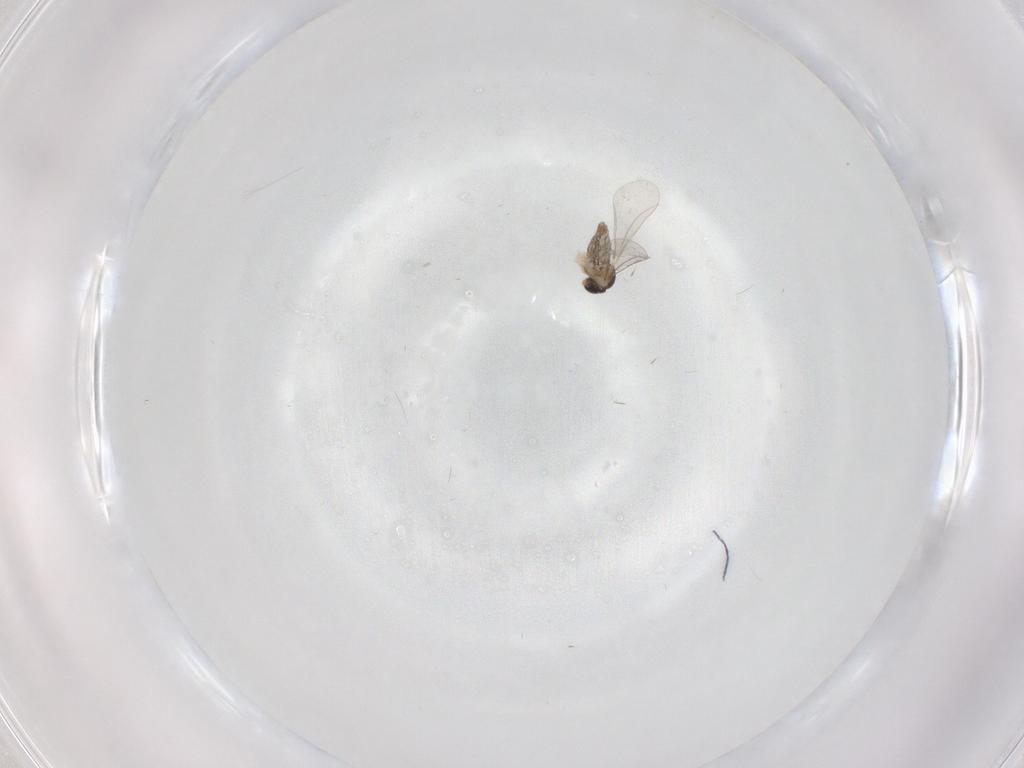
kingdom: Animalia
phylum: Arthropoda
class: Insecta
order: Diptera
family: Cecidomyiidae
